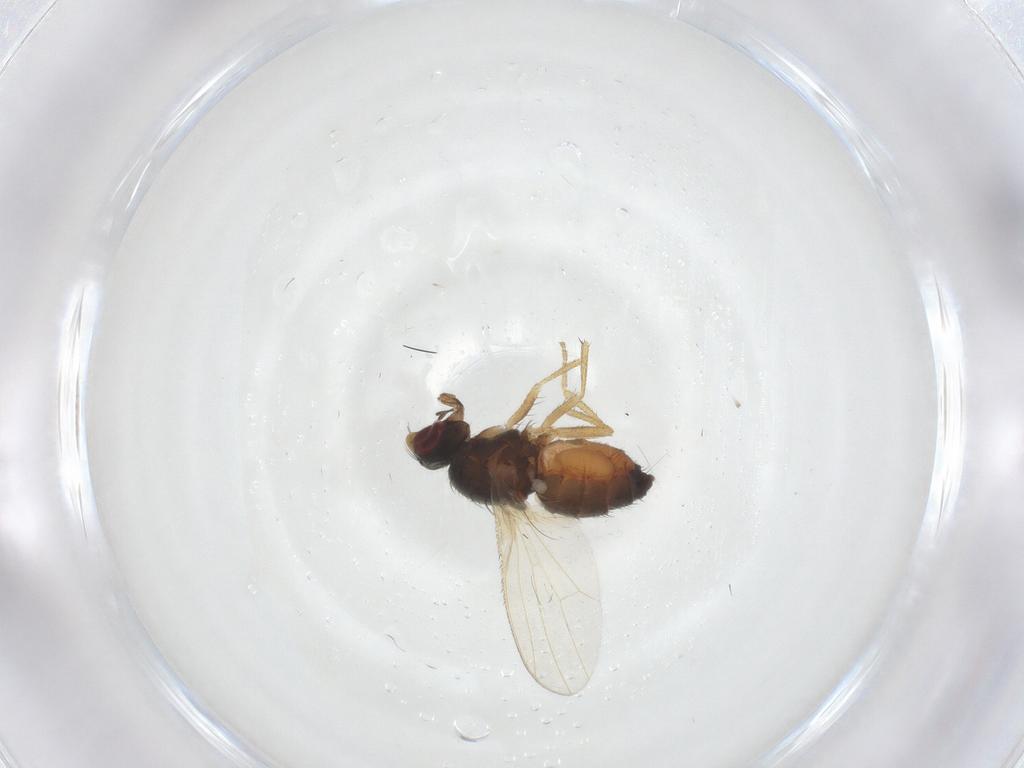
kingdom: Animalia
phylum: Arthropoda
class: Insecta
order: Diptera
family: Heleomyzidae
